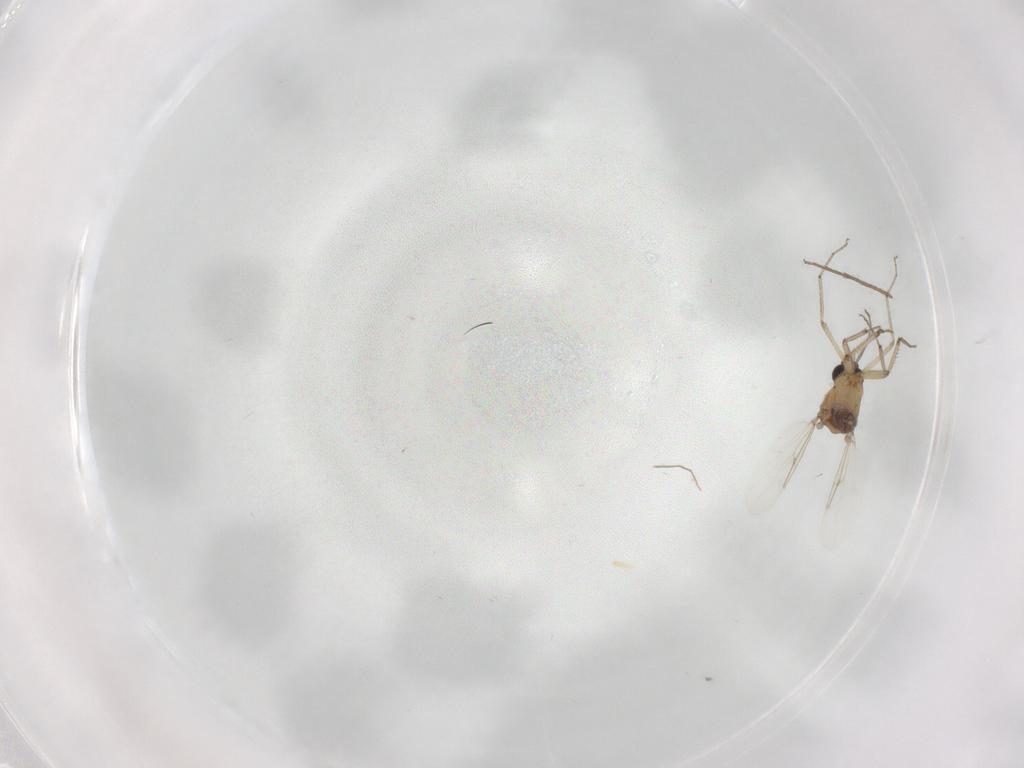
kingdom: Animalia
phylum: Arthropoda
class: Insecta
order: Diptera
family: Ceratopogonidae
